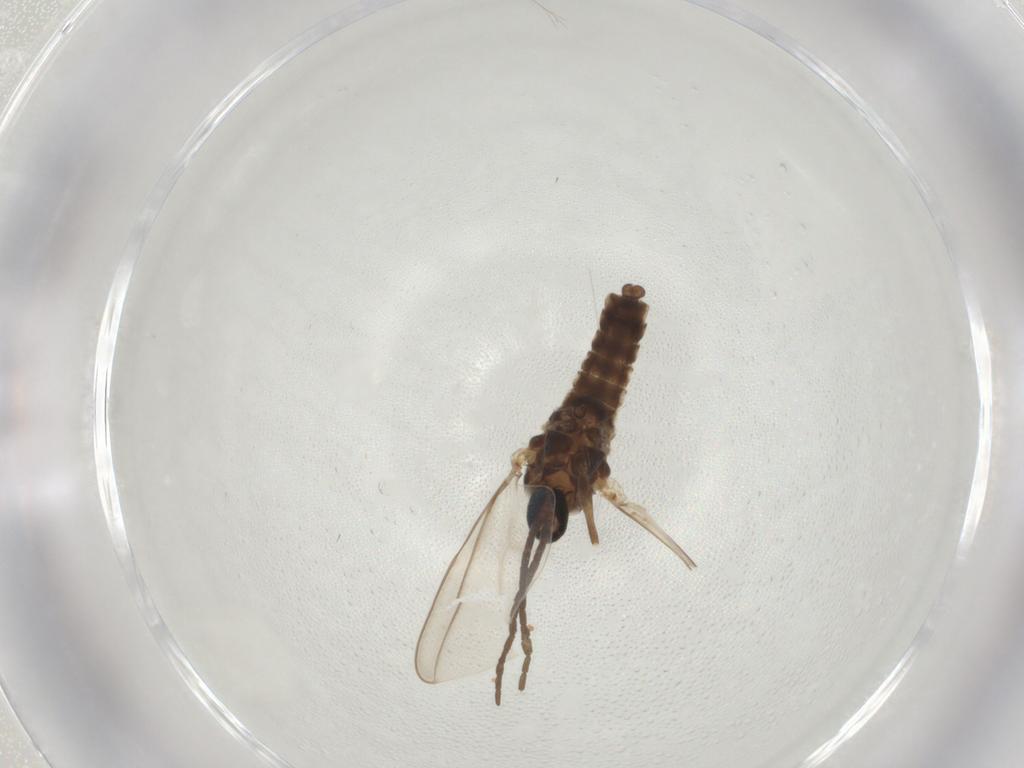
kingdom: Animalia
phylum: Arthropoda
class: Insecta
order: Diptera
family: Cecidomyiidae
